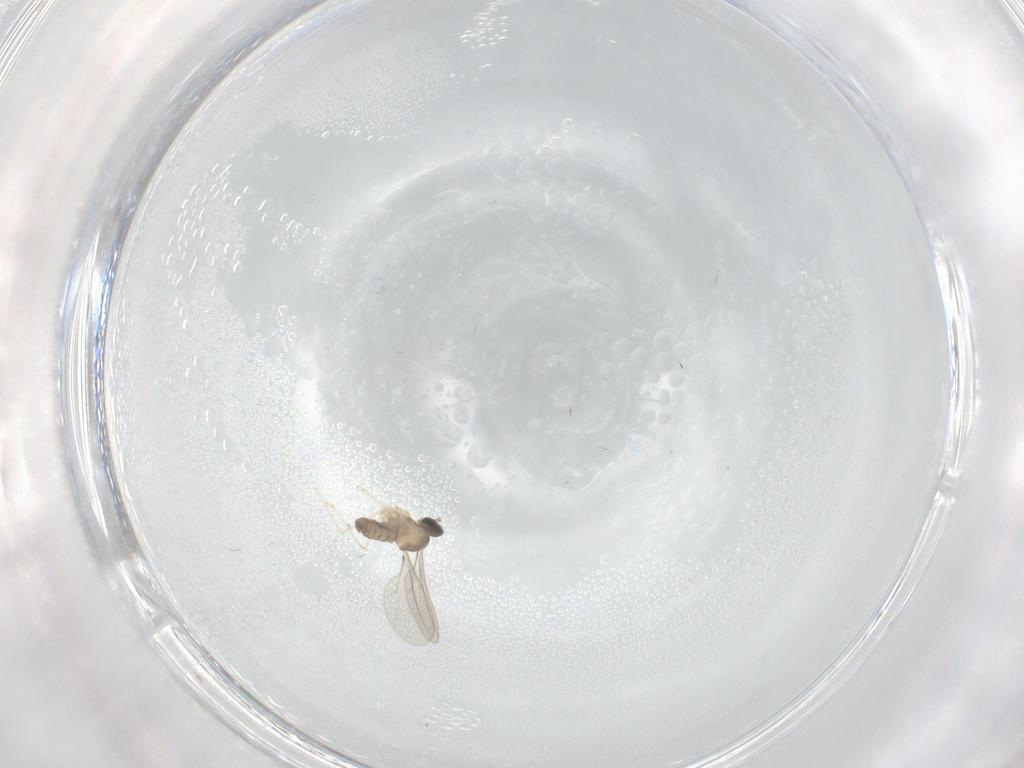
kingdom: Animalia
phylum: Arthropoda
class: Insecta
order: Diptera
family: Cecidomyiidae
